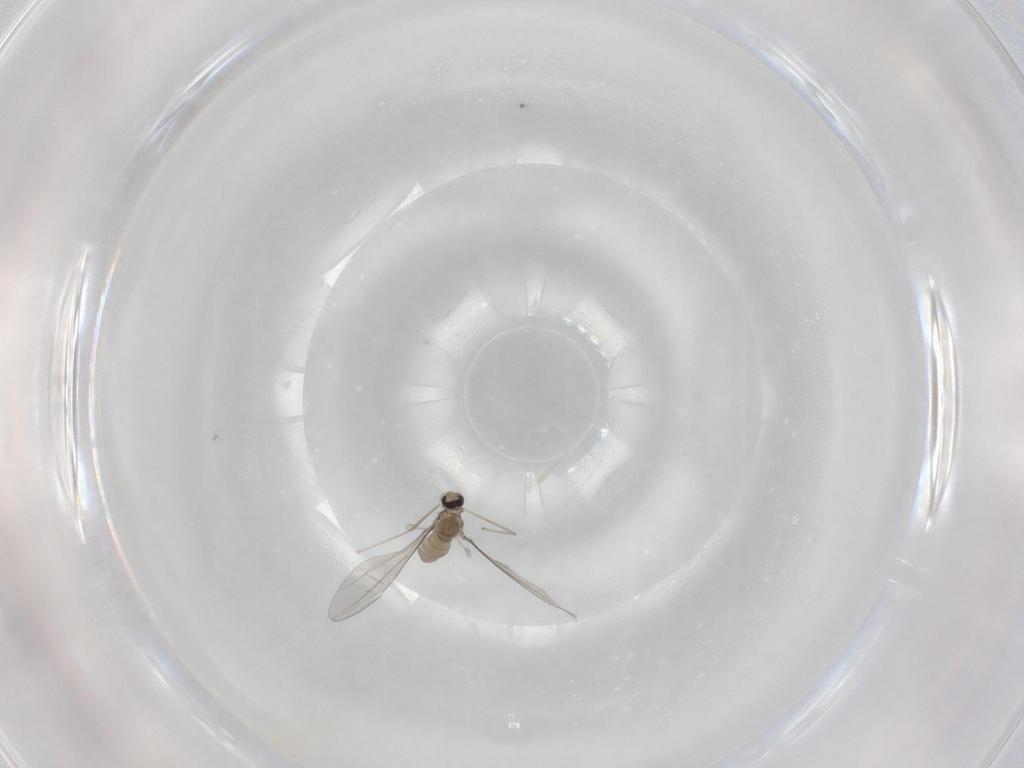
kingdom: Animalia
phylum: Arthropoda
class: Insecta
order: Diptera
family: Cecidomyiidae
